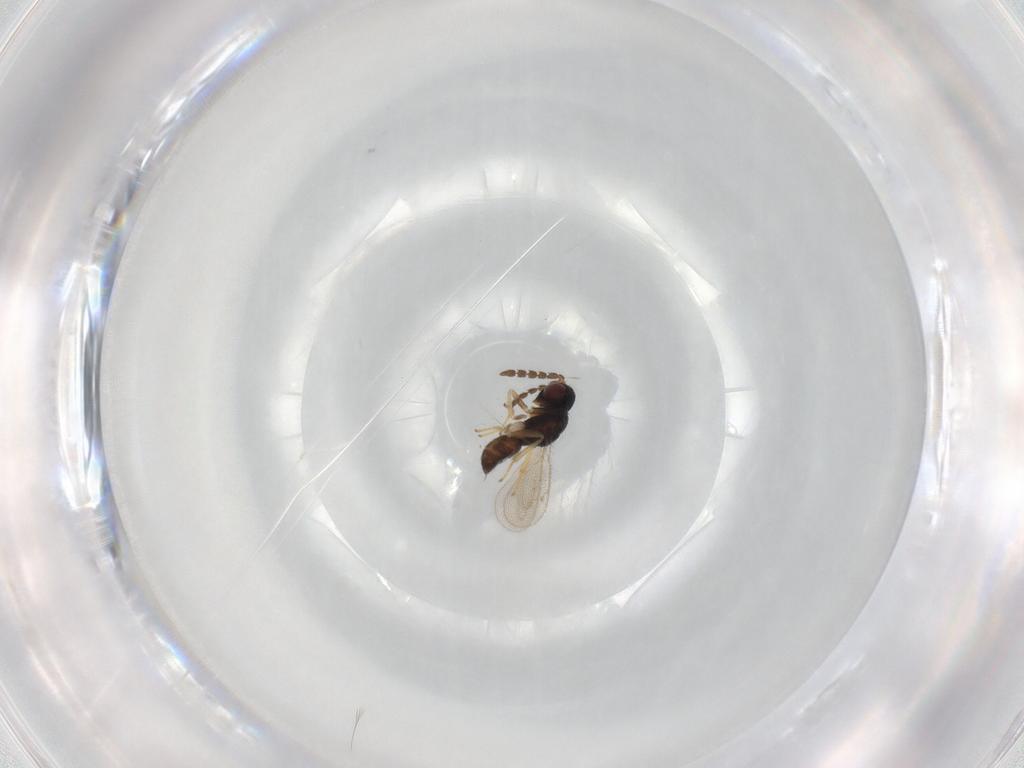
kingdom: Animalia
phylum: Arthropoda
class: Insecta
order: Hymenoptera
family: Eulophidae
